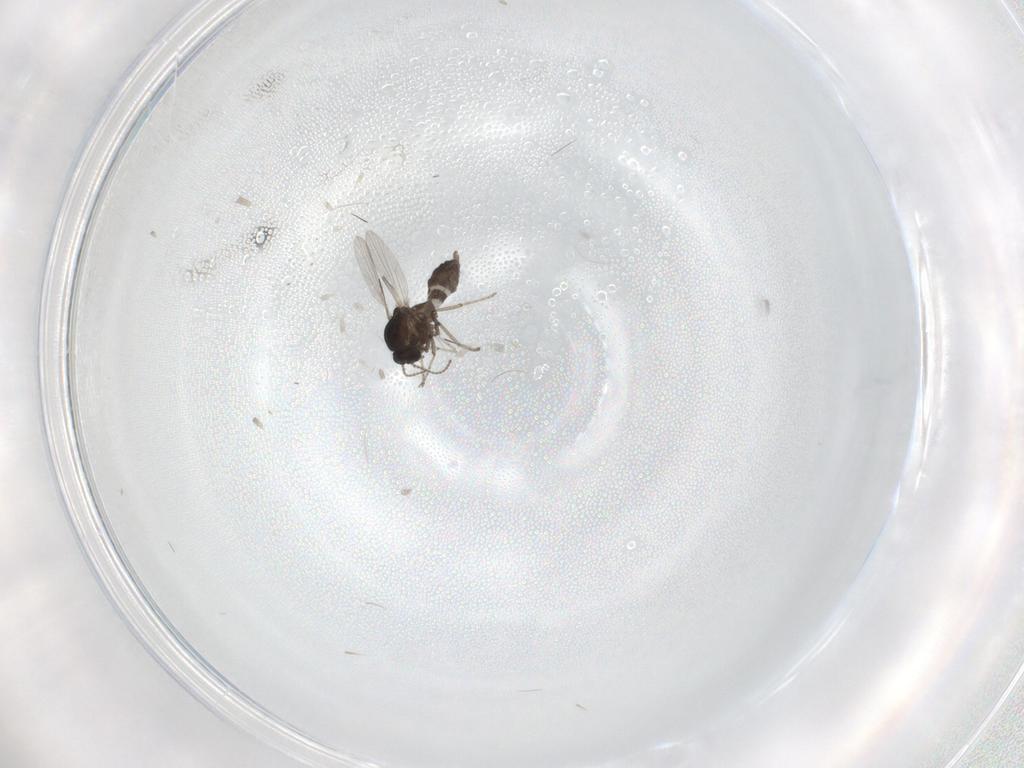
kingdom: Animalia
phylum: Arthropoda
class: Insecta
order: Diptera
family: Ceratopogonidae
